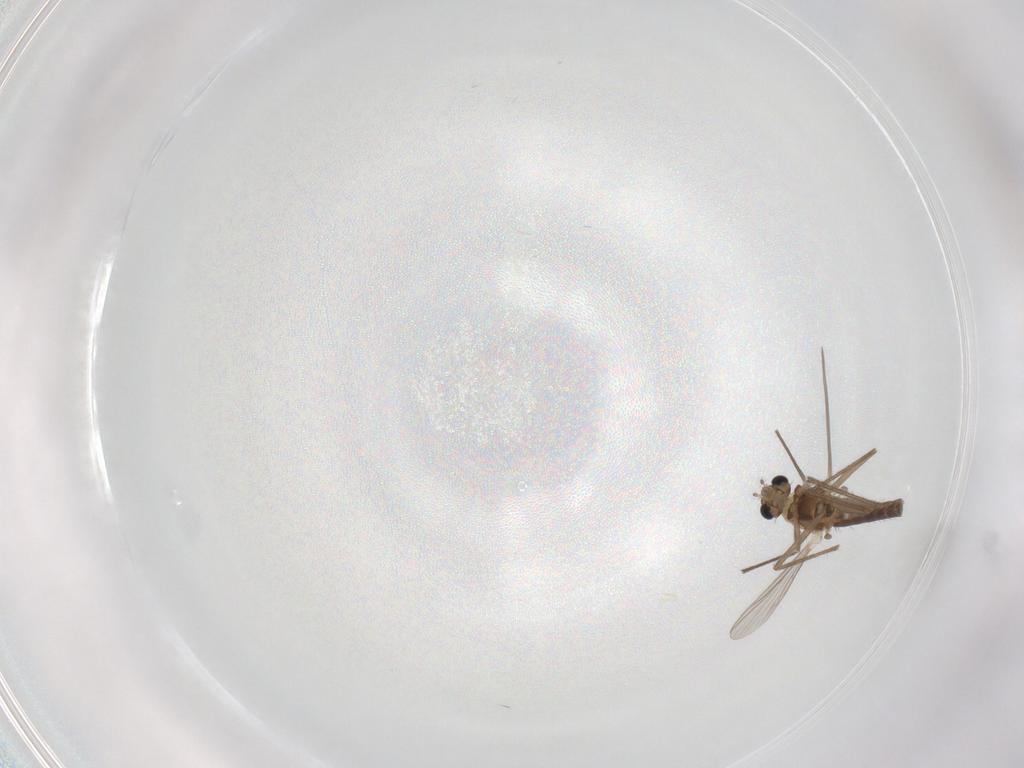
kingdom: Animalia
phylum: Arthropoda
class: Insecta
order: Diptera
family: Chironomidae
